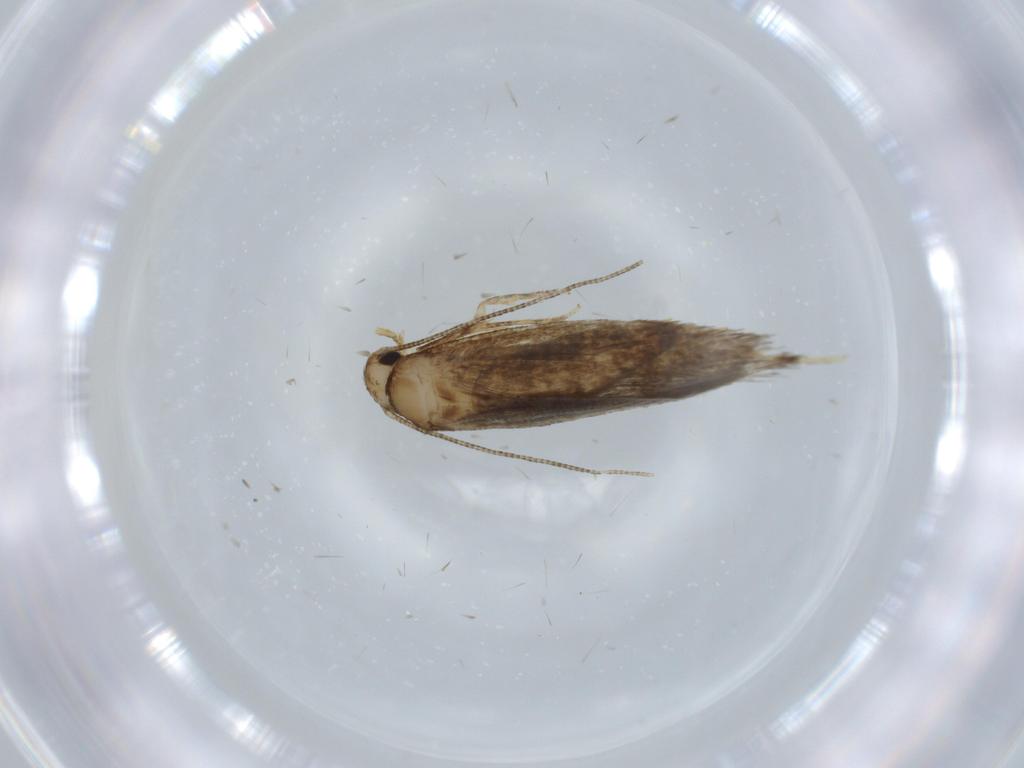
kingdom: Animalia
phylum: Arthropoda
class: Insecta
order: Lepidoptera
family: Tineidae
